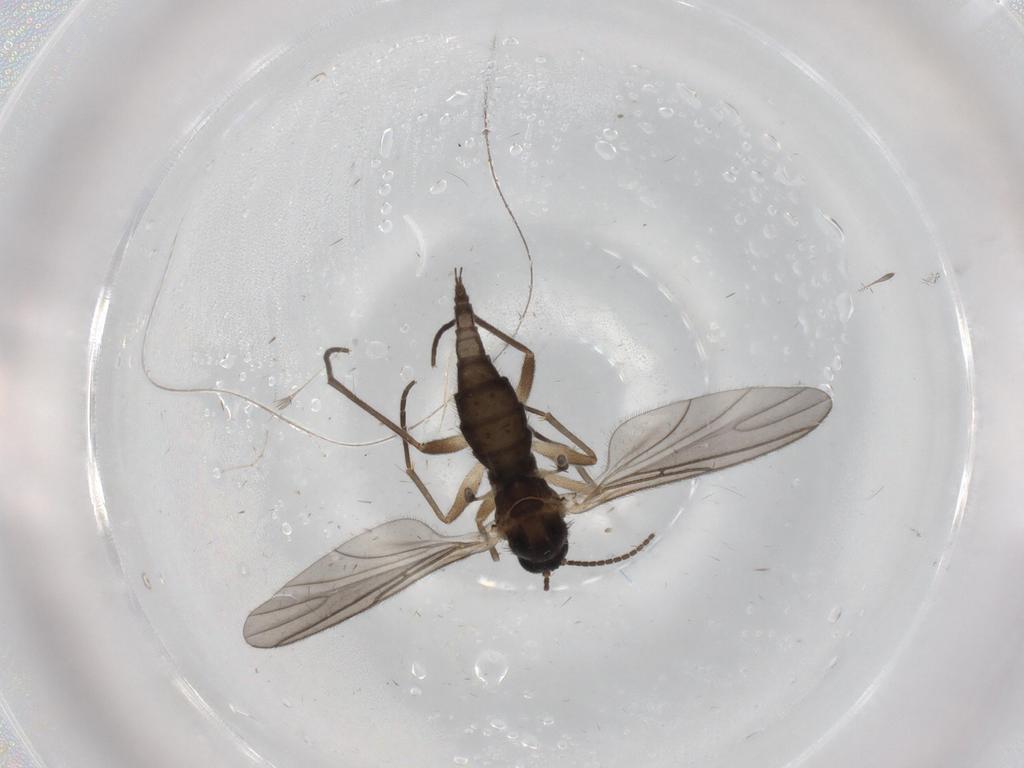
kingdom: Animalia
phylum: Arthropoda
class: Insecta
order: Diptera
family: Sciaridae
